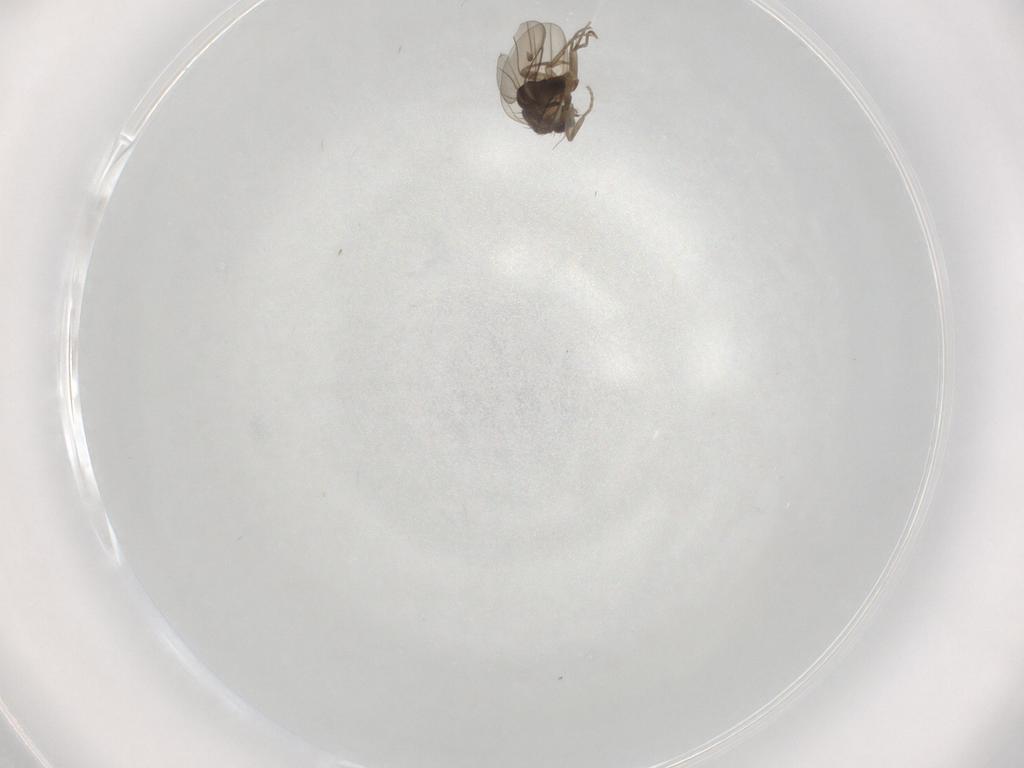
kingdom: Animalia
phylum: Arthropoda
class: Insecta
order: Diptera
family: Phoridae
